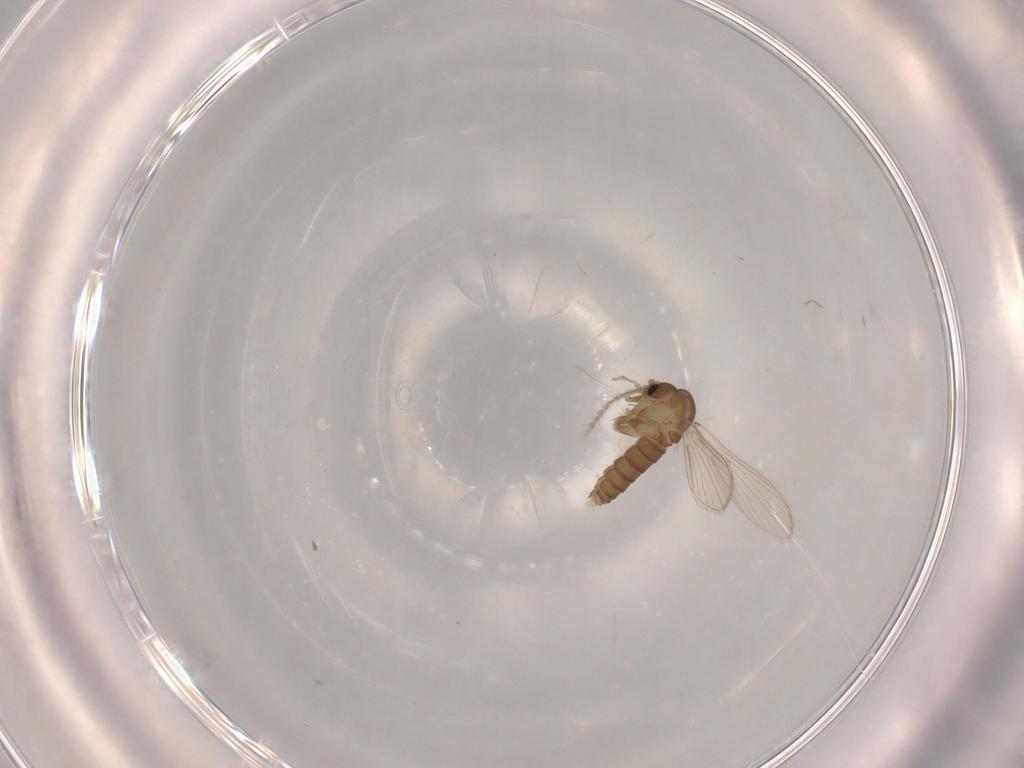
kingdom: Animalia
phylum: Arthropoda
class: Insecta
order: Diptera
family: Psychodidae
